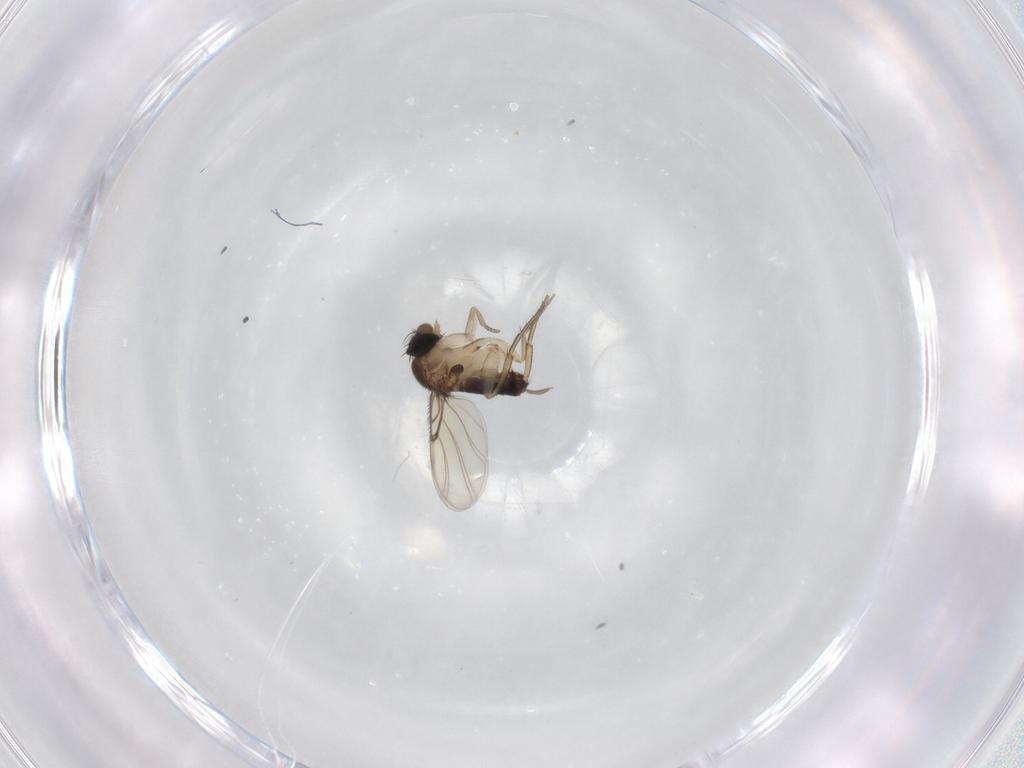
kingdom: Animalia
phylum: Arthropoda
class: Insecta
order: Diptera
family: Phoridae
